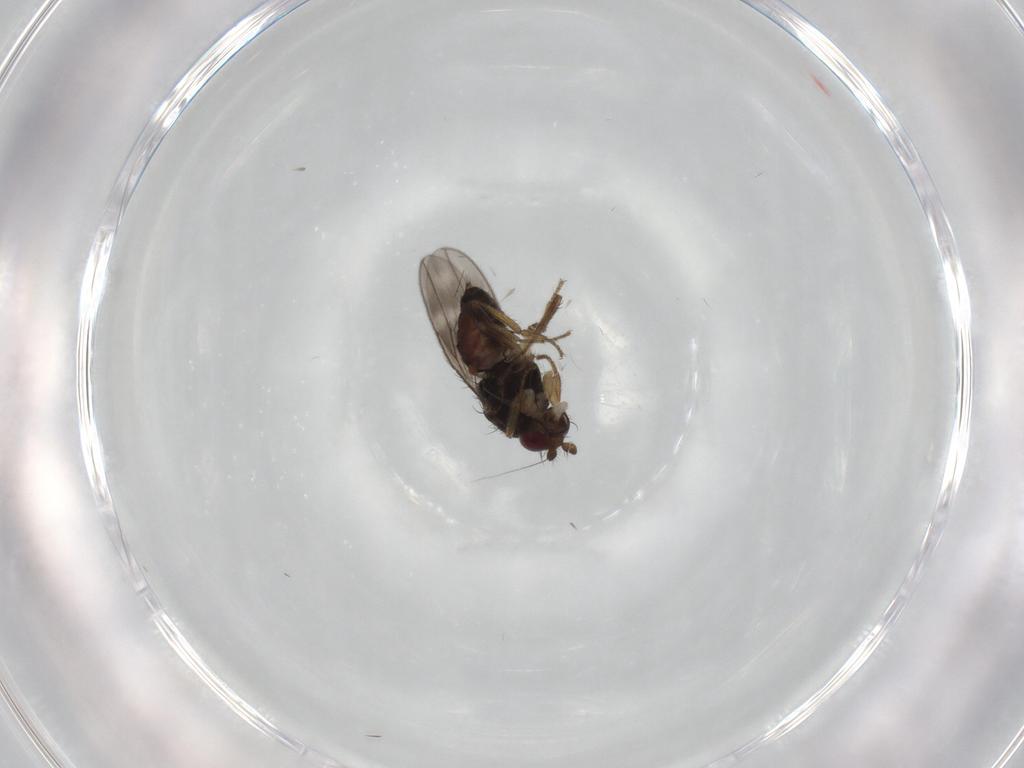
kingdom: Animalia
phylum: Arthropoda
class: Insecta
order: Diptera
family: Sphaeroceridae
